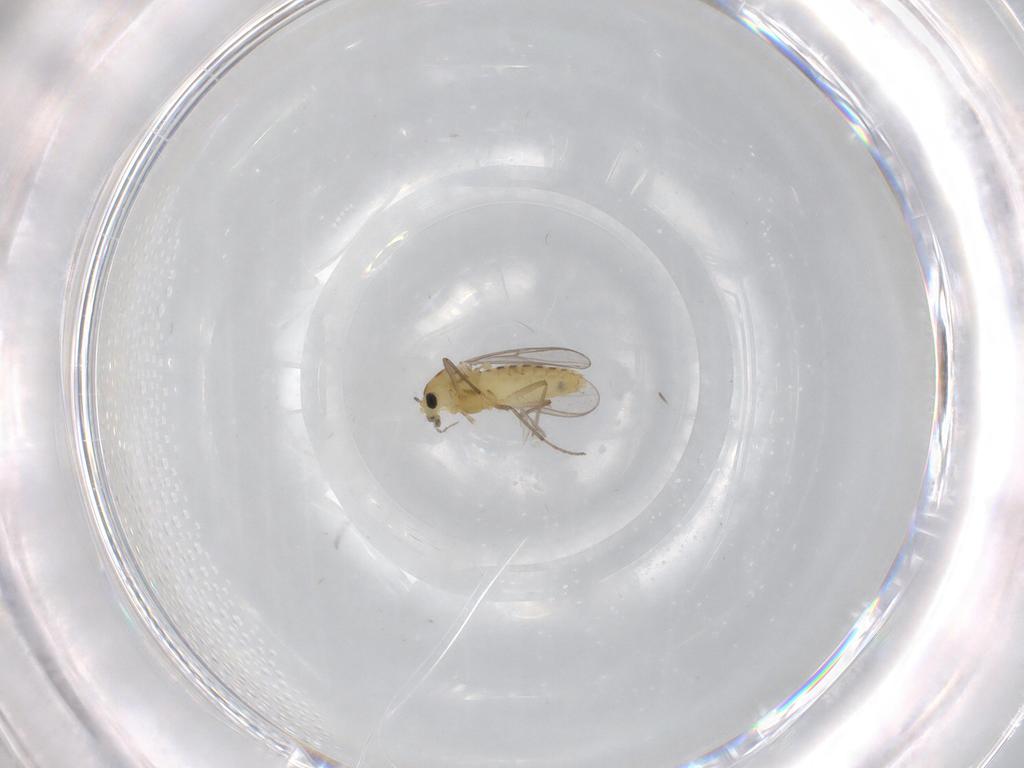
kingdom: Animalia
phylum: Arthropoda
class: Insecta
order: Diptera
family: Chironomidae
